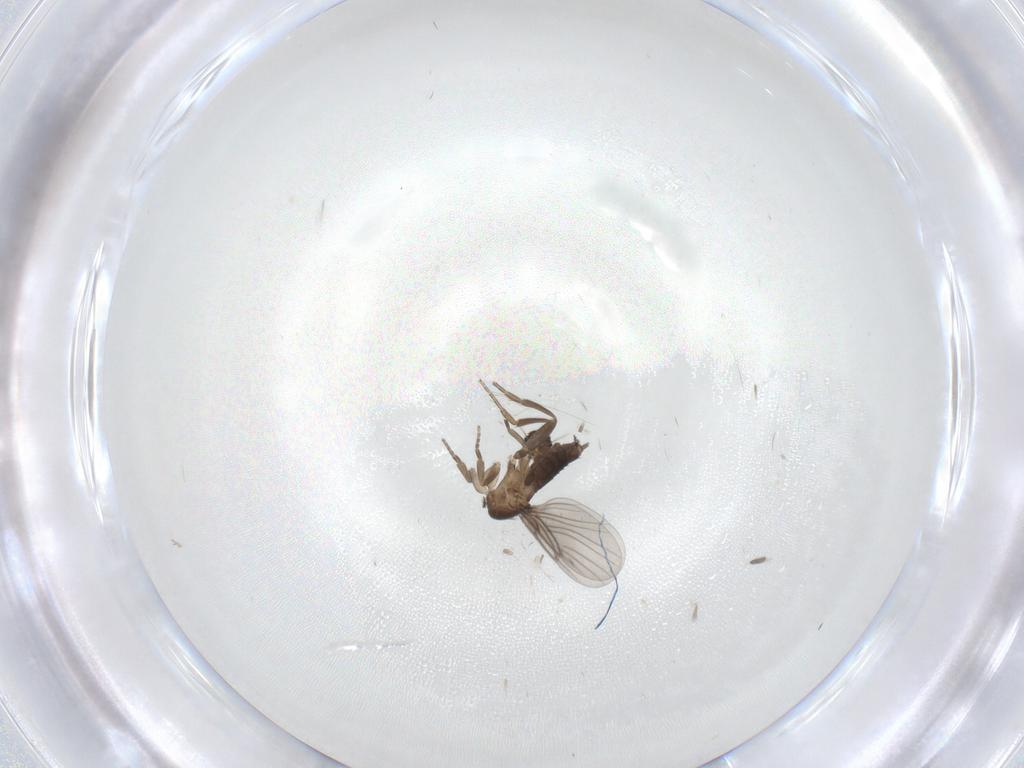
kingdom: Animalia
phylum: Arthropoda
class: Insecta
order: Diptera
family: Phoridae
